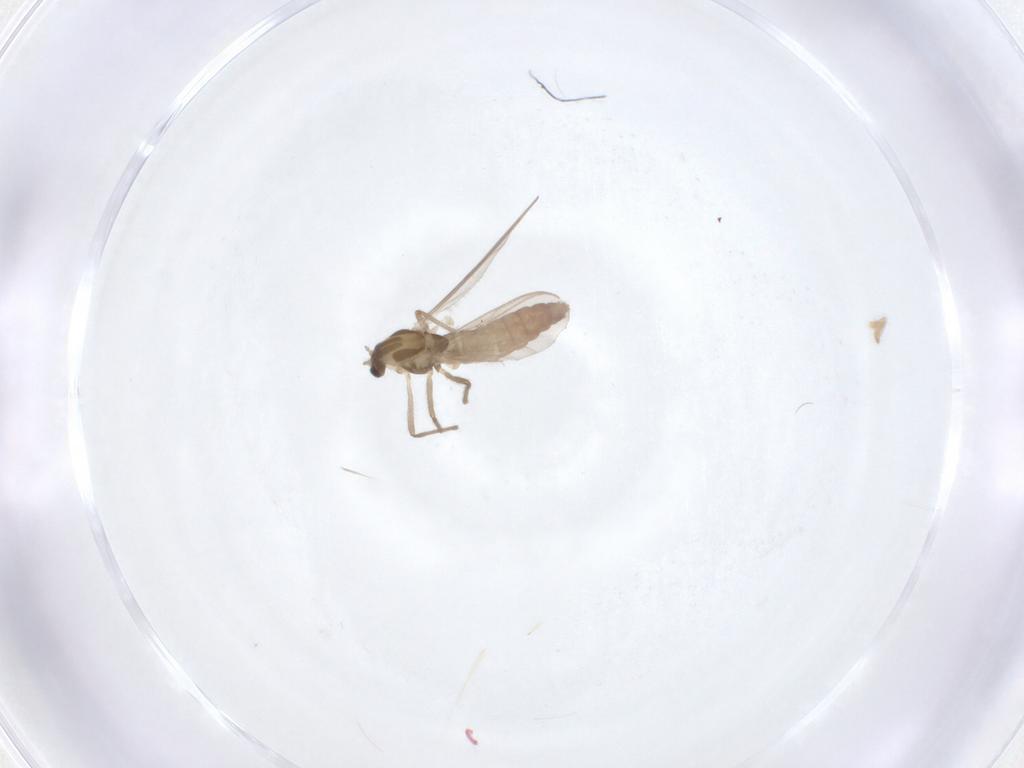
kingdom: Animalia
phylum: Arthropoda
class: Insecta
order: Diptera
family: Chironomidae
